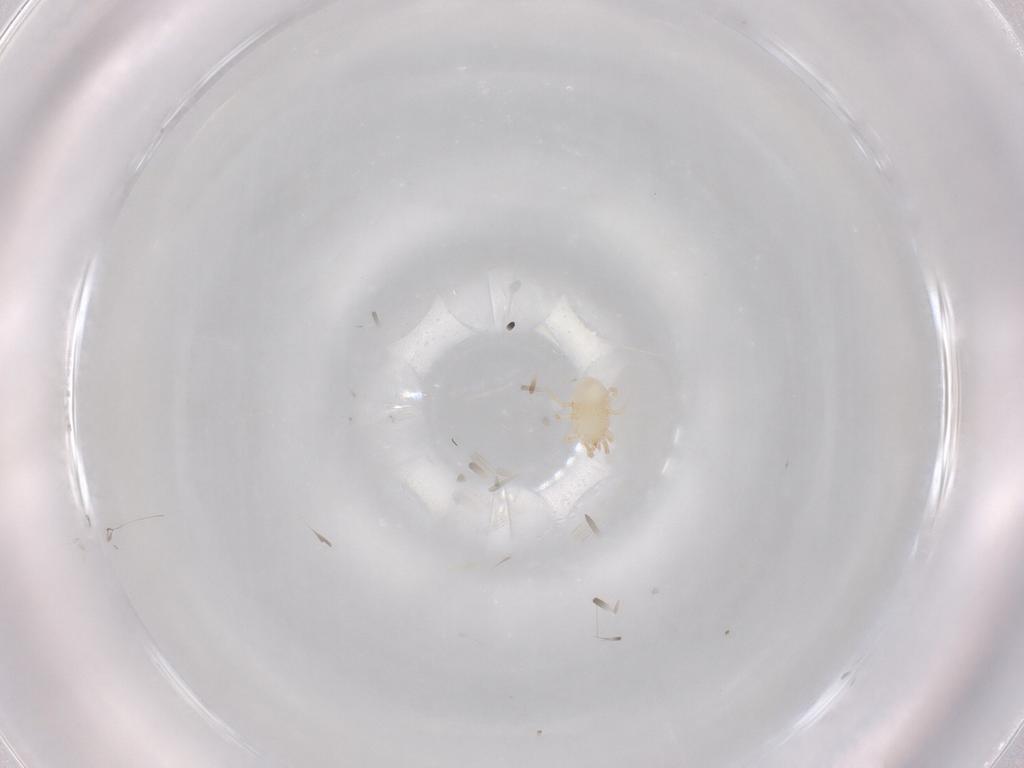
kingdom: Animalia
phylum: Arthropoda
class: Arachnida
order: Mesostigmata
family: Melicharidae
